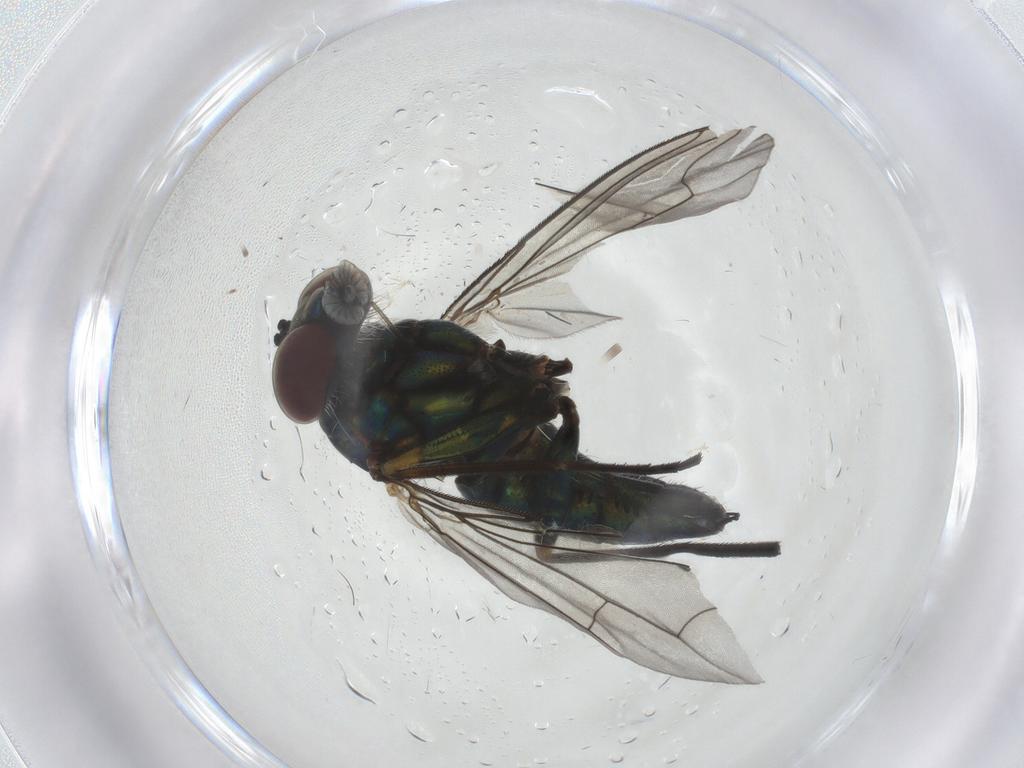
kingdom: Animalia
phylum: Arthropoda
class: Insecta
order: Diptera
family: Dolichopodidae
